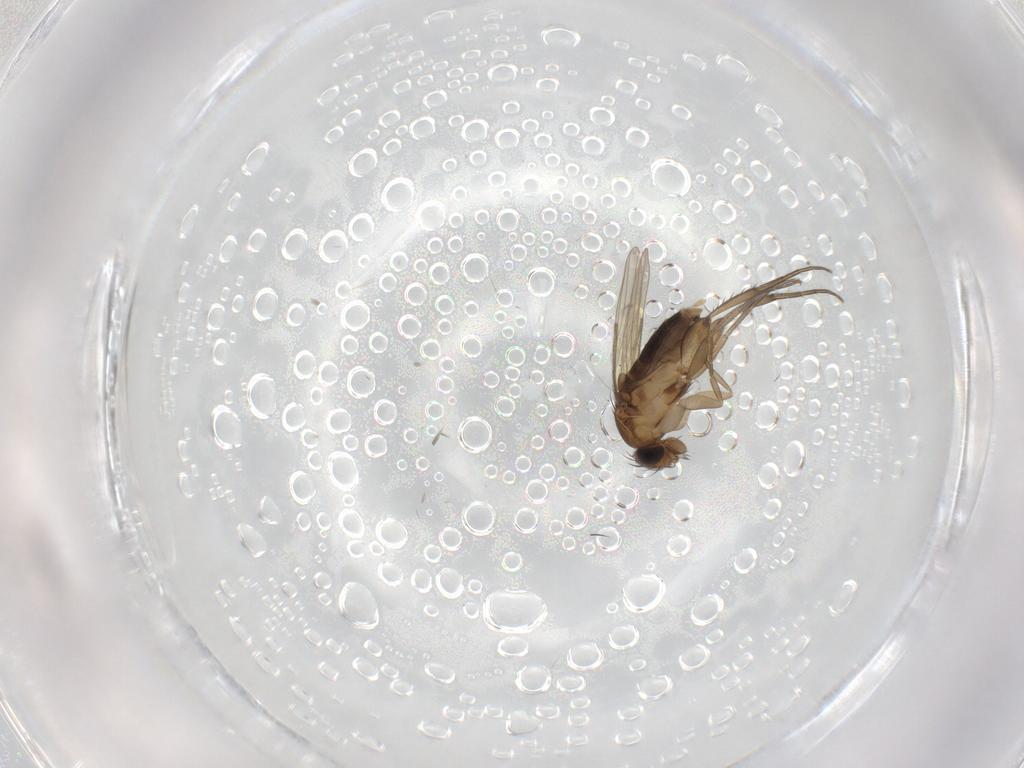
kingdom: Animalia
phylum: Arthropoda
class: Insecta
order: Diptera
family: Phoridae
